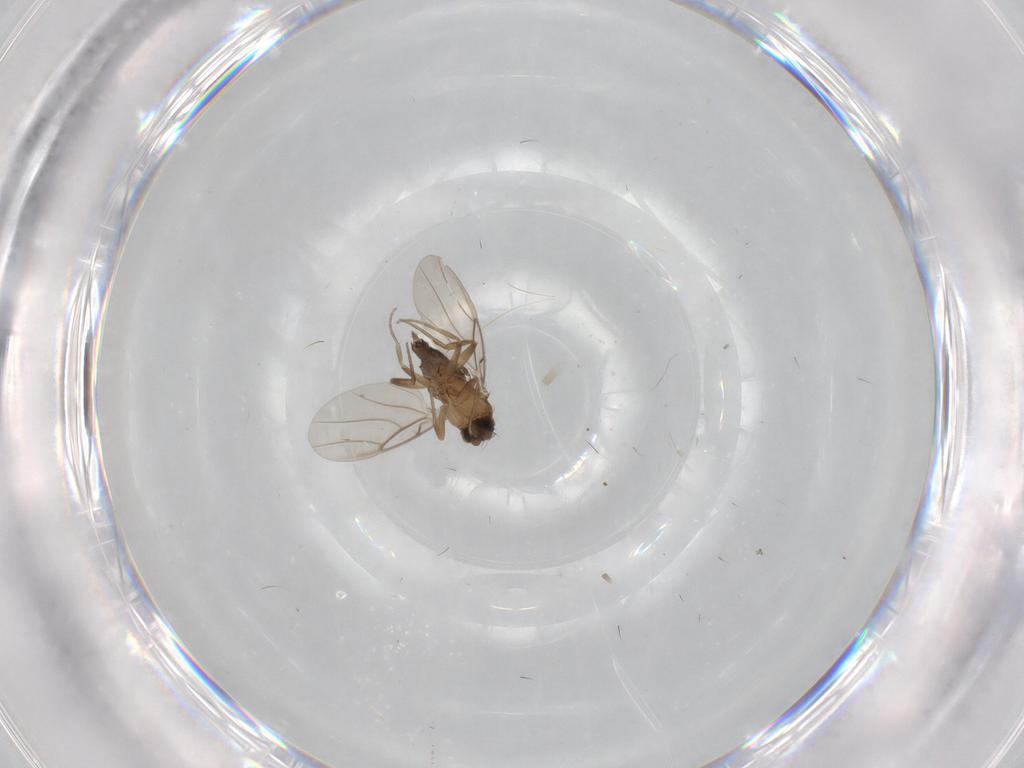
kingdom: Animalia
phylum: Arthropoda
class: Insecta
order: Diptera
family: Phoridae
